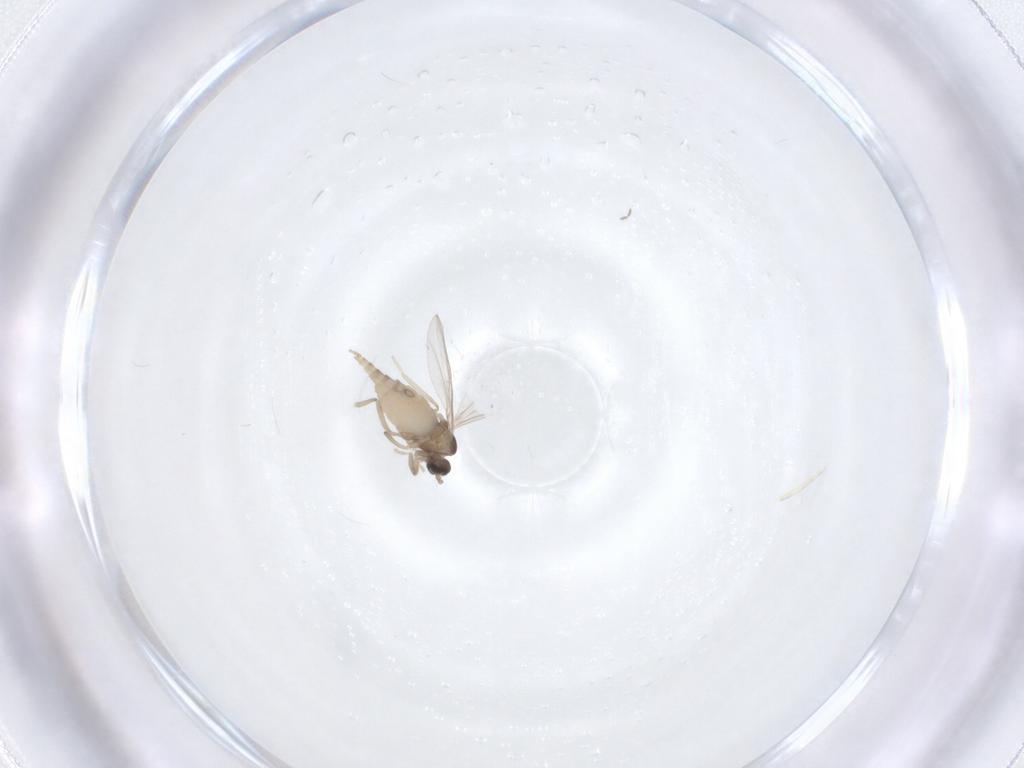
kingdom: Animalia
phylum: Arthropoda
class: Insecta
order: Diptera
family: Cecidomyiidae
